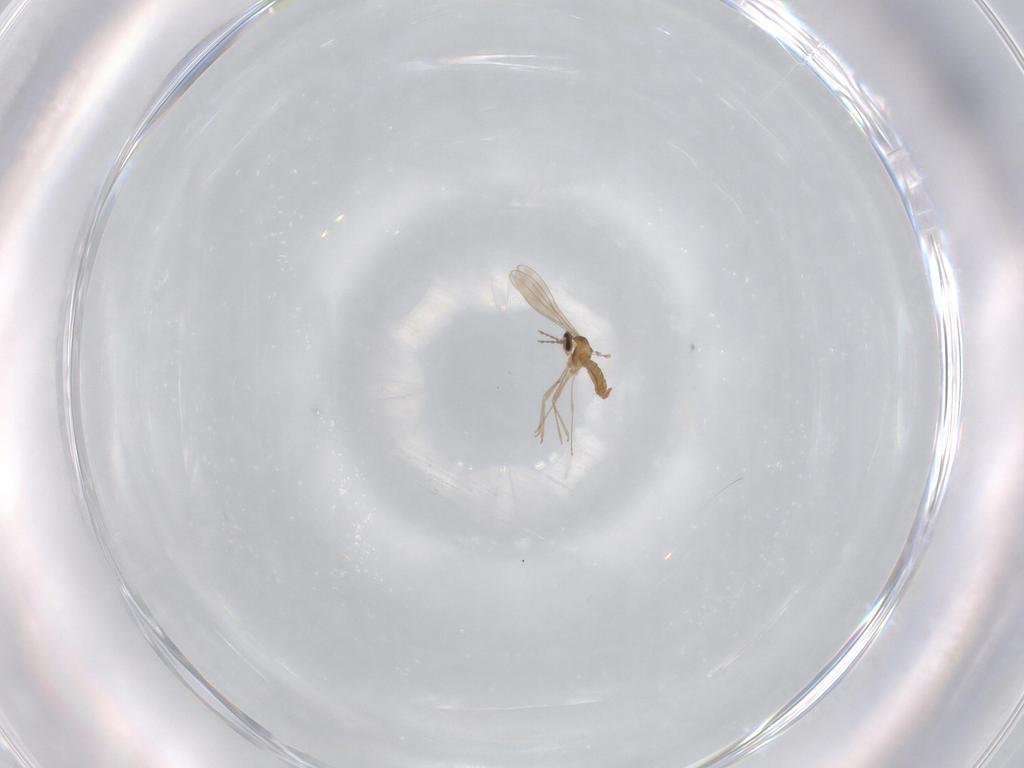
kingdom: Animalia
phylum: Arthropoda
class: Insecta
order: Diptera
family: Cecidomyiidae
